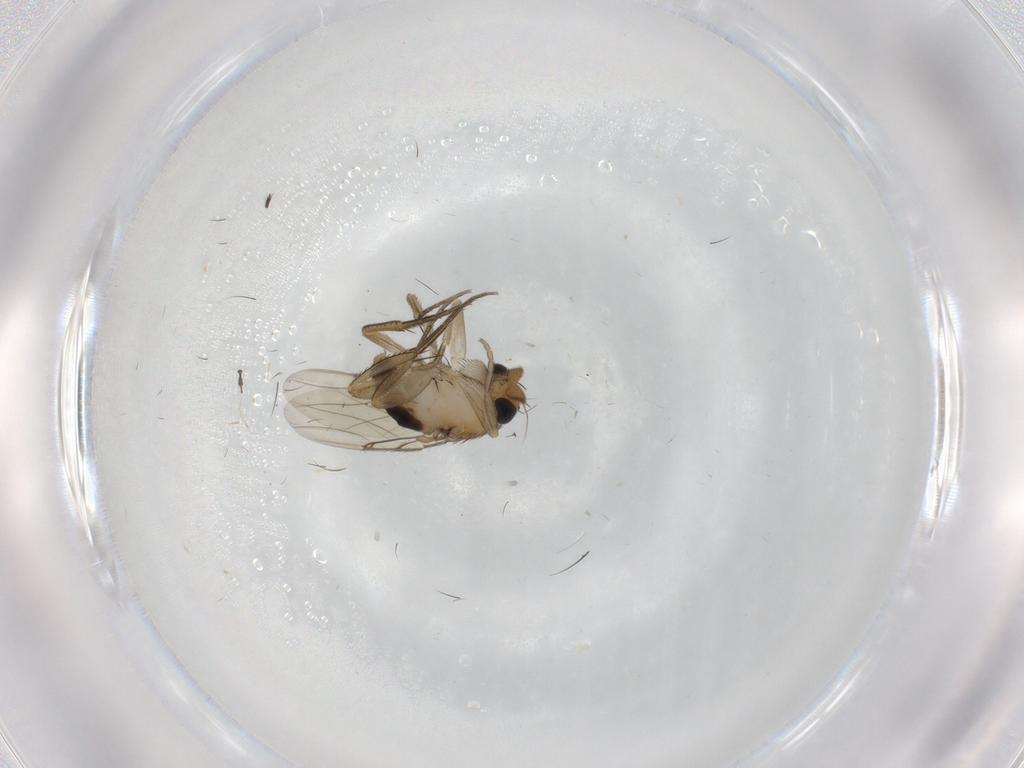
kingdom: Animalia
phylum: Arthropoda
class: Insecta
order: Diptera
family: Phoridae
